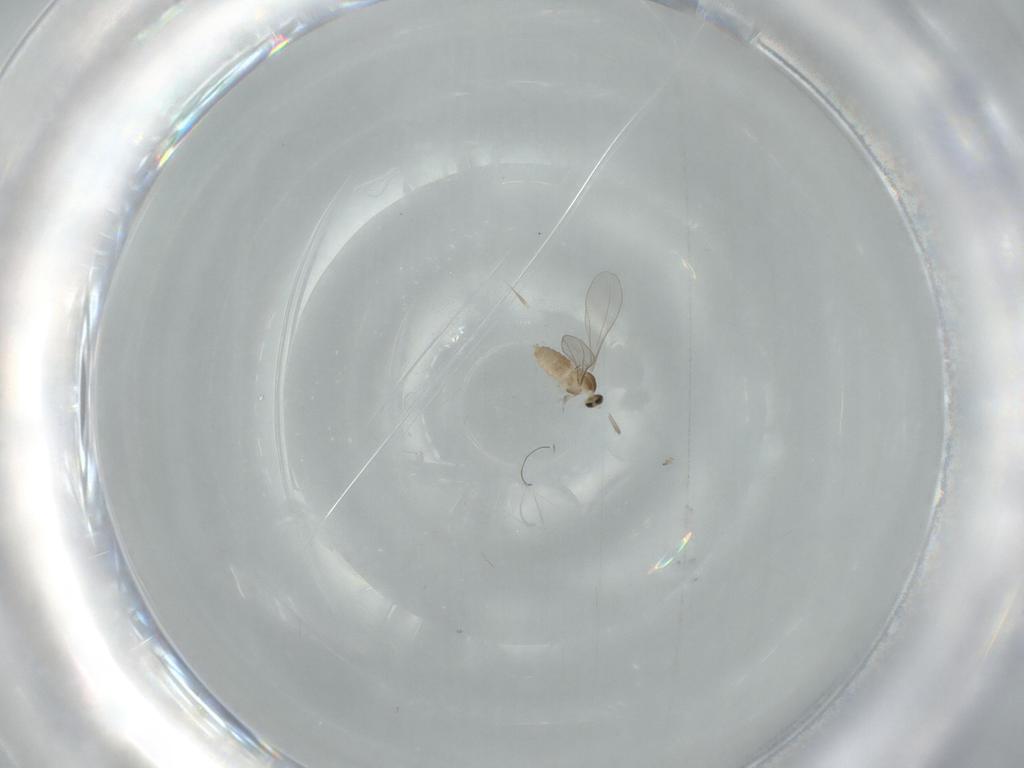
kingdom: Animalia
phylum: Arthropoda
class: Insecta
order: Diptera
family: Cecidomyiidae
